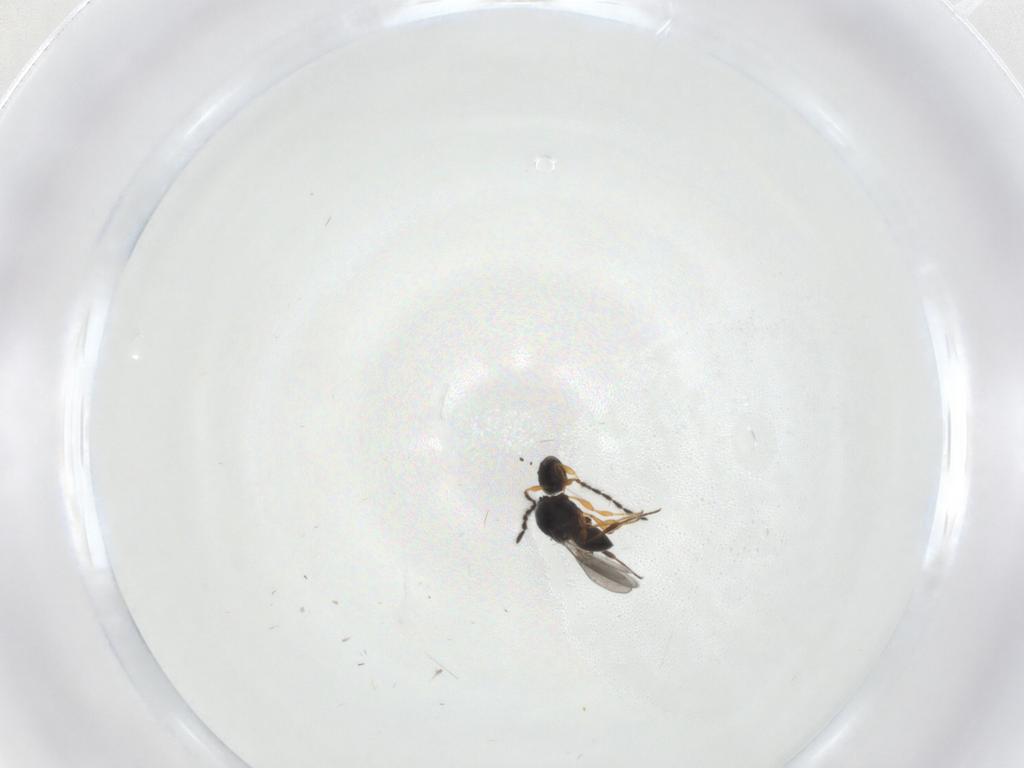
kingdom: Animalia
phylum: Arthropoda
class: Insecta
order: Hymenoptera
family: Platygastridae
